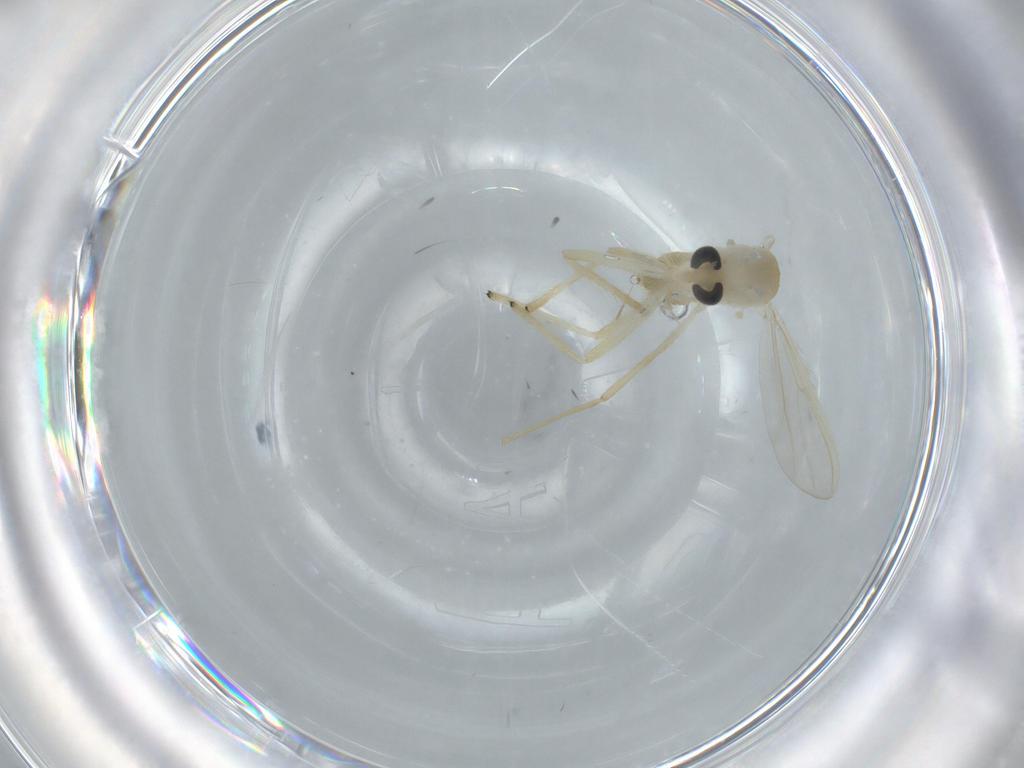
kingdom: Animalia
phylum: Arthropoda
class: Insecta
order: Diptera
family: Chironomidae
